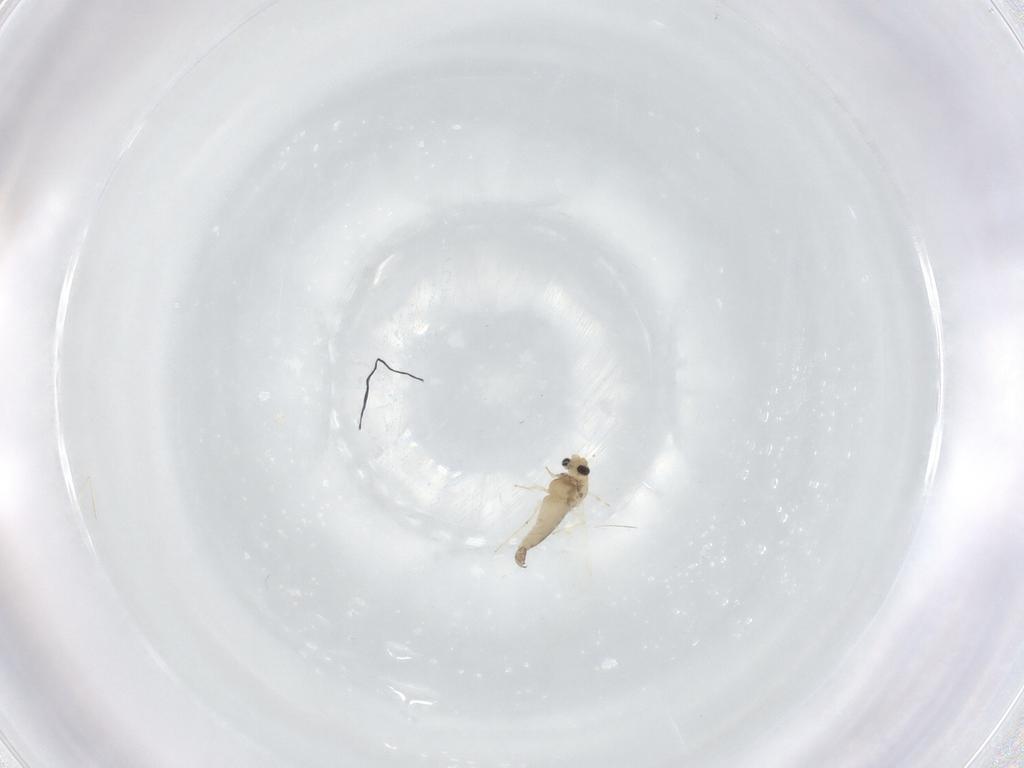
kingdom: Animalia
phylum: Arthropoda
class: Insecta
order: Diptera
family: Chironomidae
